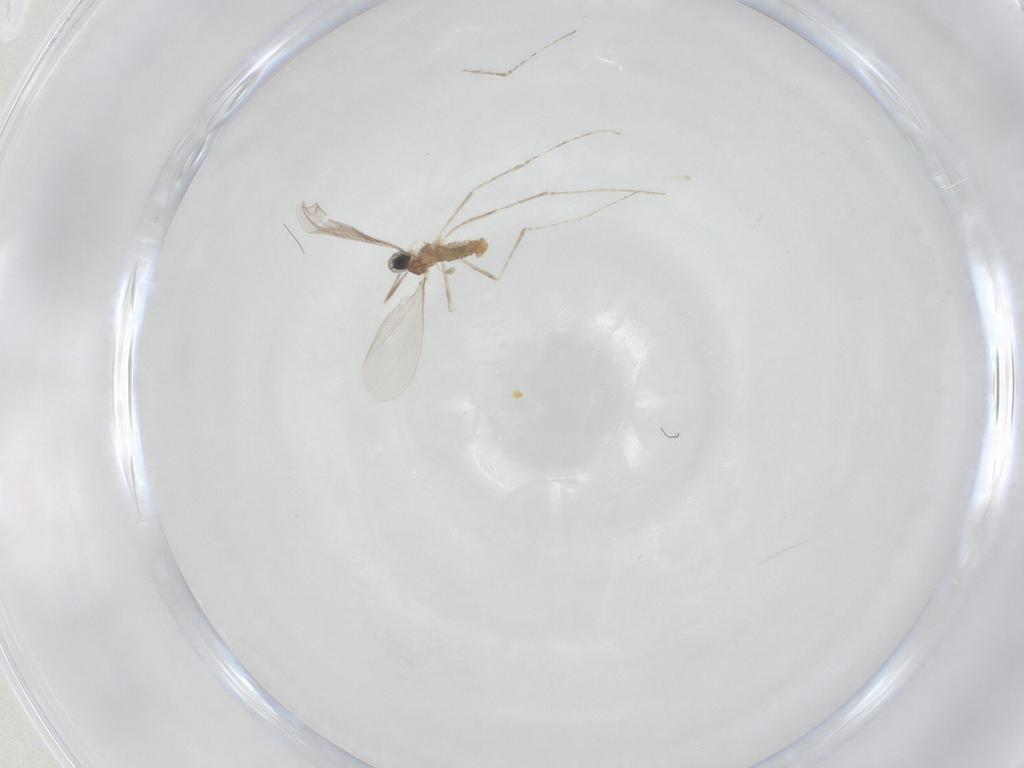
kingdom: Animalia
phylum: Arthropoda
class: Insecta
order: Diptera
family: Cecidomyiidae
